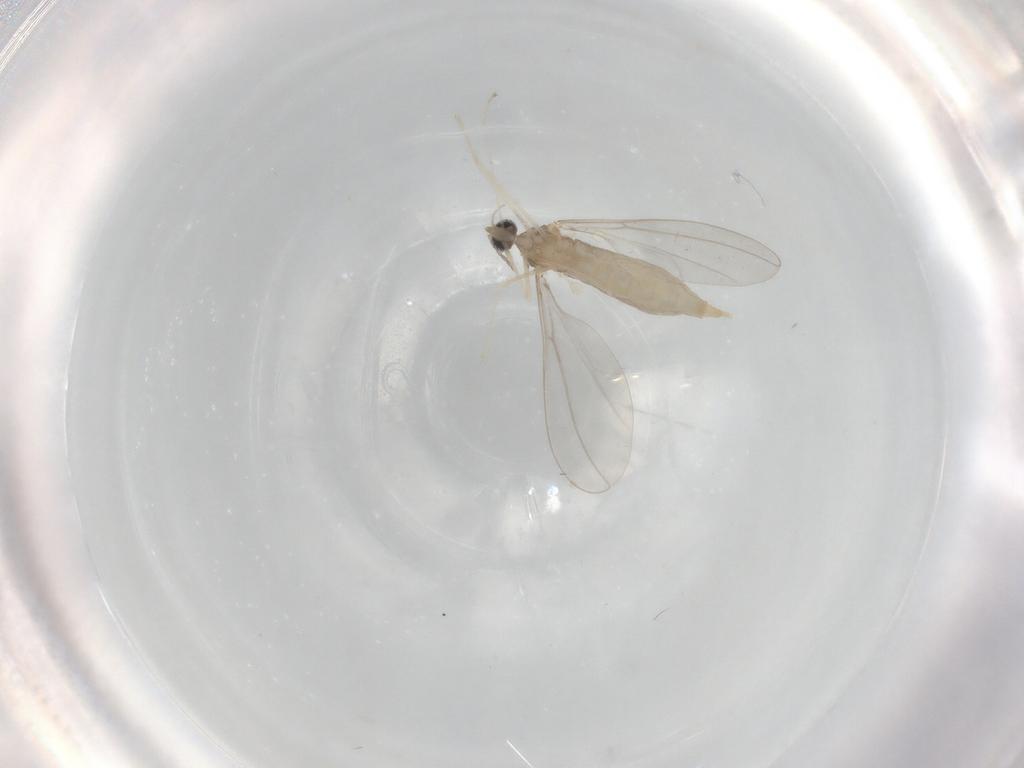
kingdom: Animalia
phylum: Arthropoda
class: Insecta
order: Diptera
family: Cecidomyiidae
